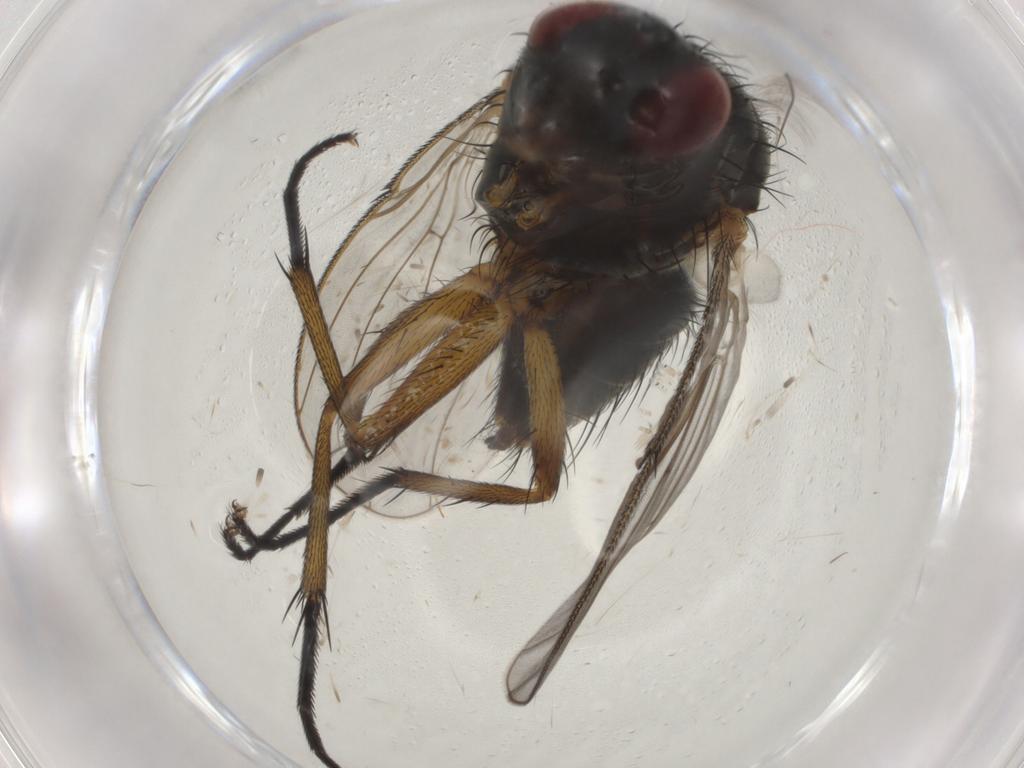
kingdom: Animalia
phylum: Arthropoda
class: Insecta
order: Diptera
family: Muscidae
